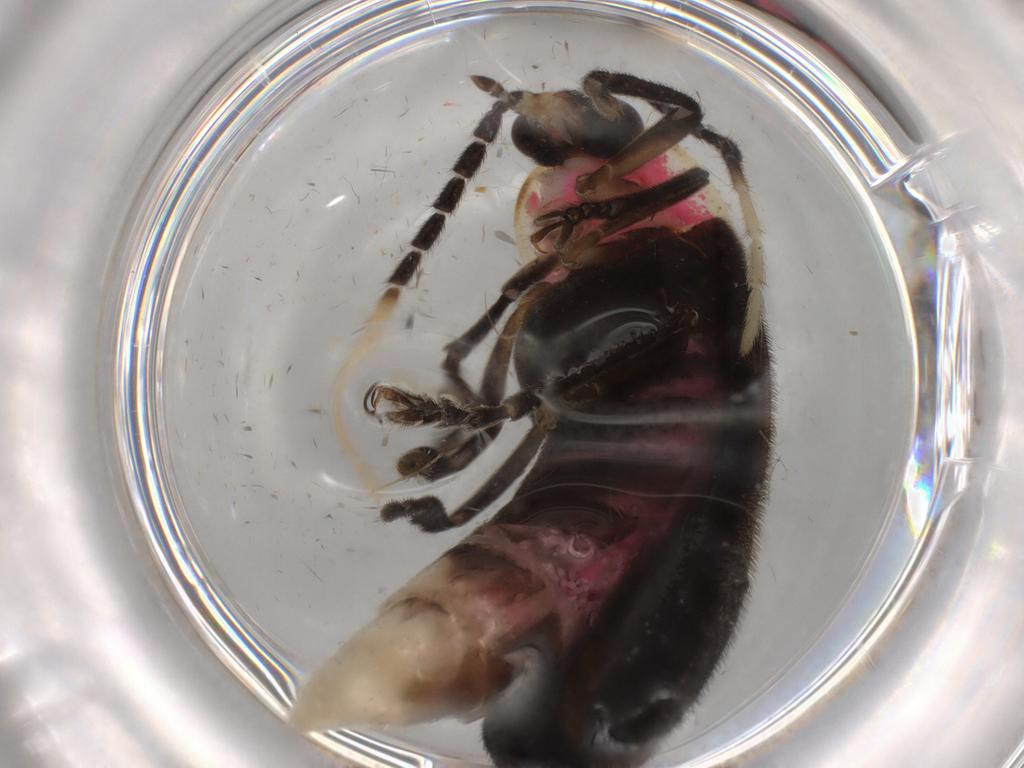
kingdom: Animalia
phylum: Arthropoda
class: Insecta
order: Coleoptera
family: Lampyridae
